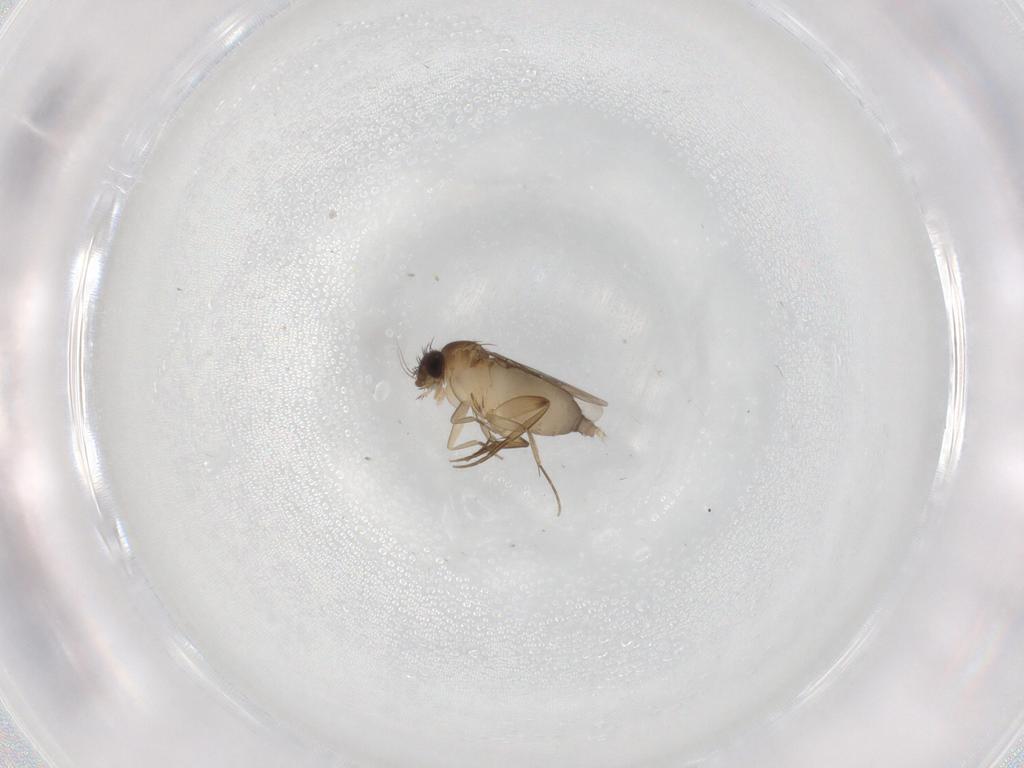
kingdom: Animalia
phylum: Arthropoda
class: Insecta
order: Diptera
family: Phoridae
